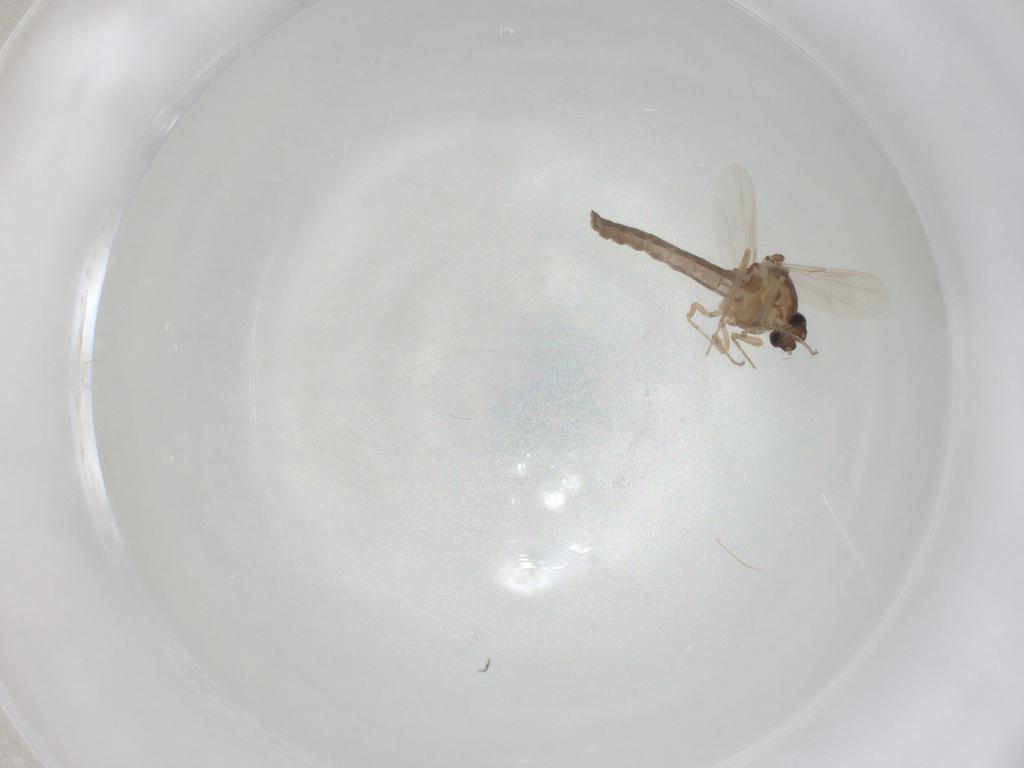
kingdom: Animalia
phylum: Arthropoda
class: Insecta
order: Diptera
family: Ceratopogonidae
